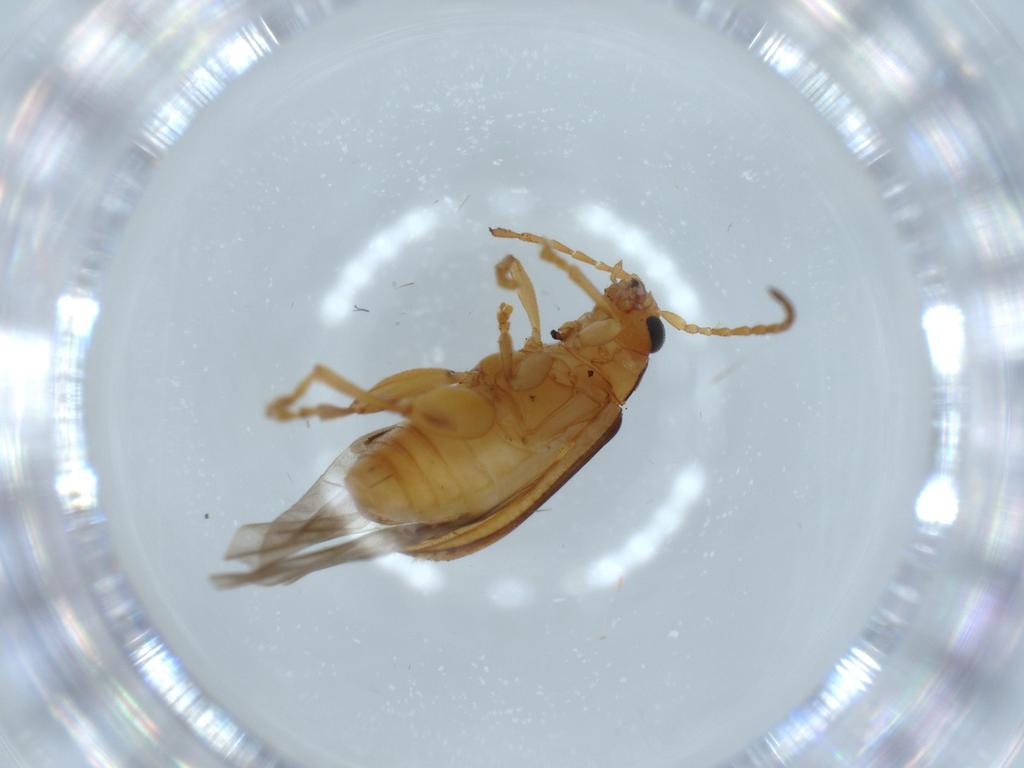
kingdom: Animalia
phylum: Arthropoda
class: Insecta
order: Coleoptera
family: Chrysomelidae
